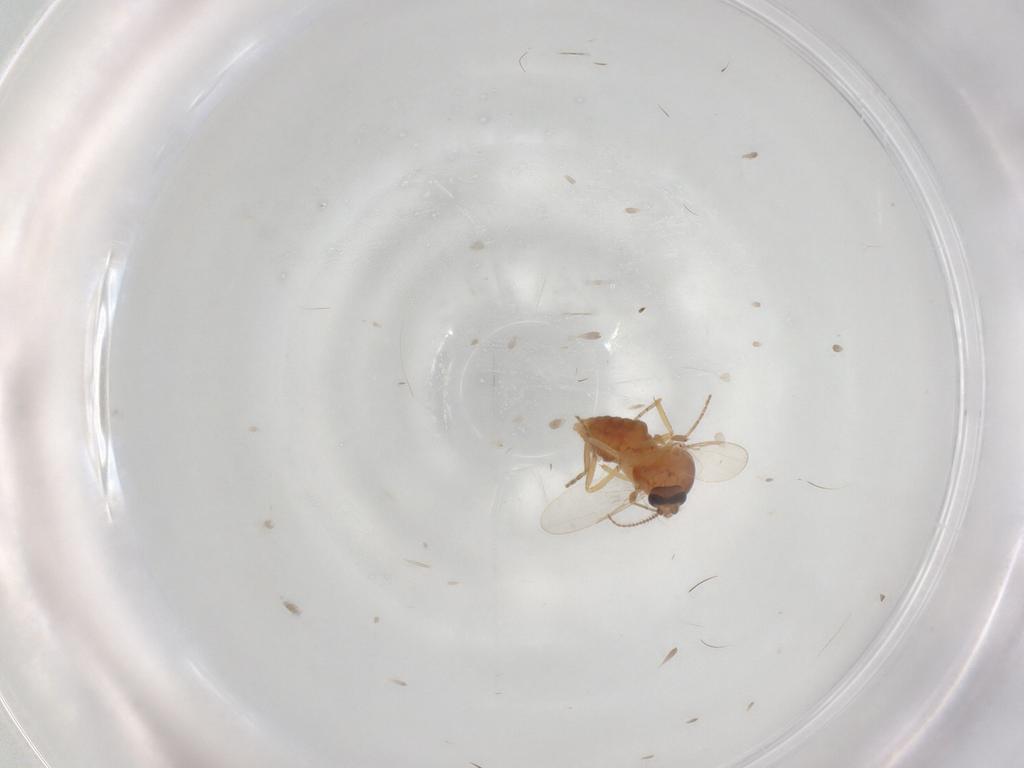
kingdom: Animalia
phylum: Arthropoda
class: Insecta
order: Diptera
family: Ceratopogonidae
